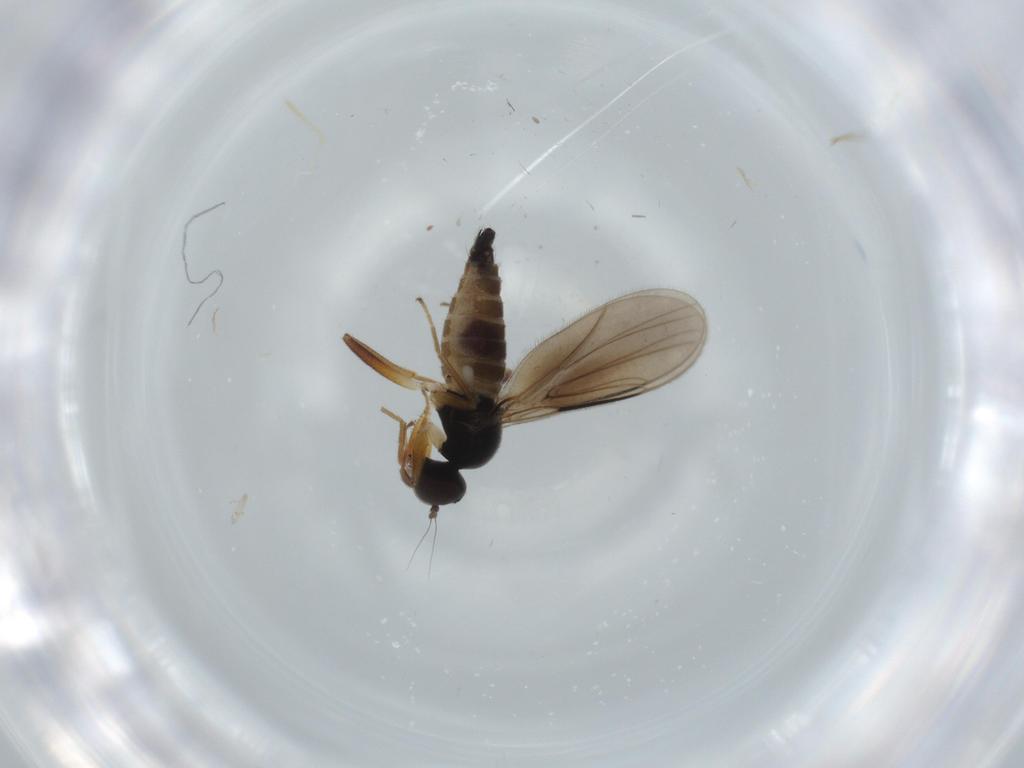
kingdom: Animalia
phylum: Arthropoda
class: Insecta
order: Diptera
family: Hybotidae
